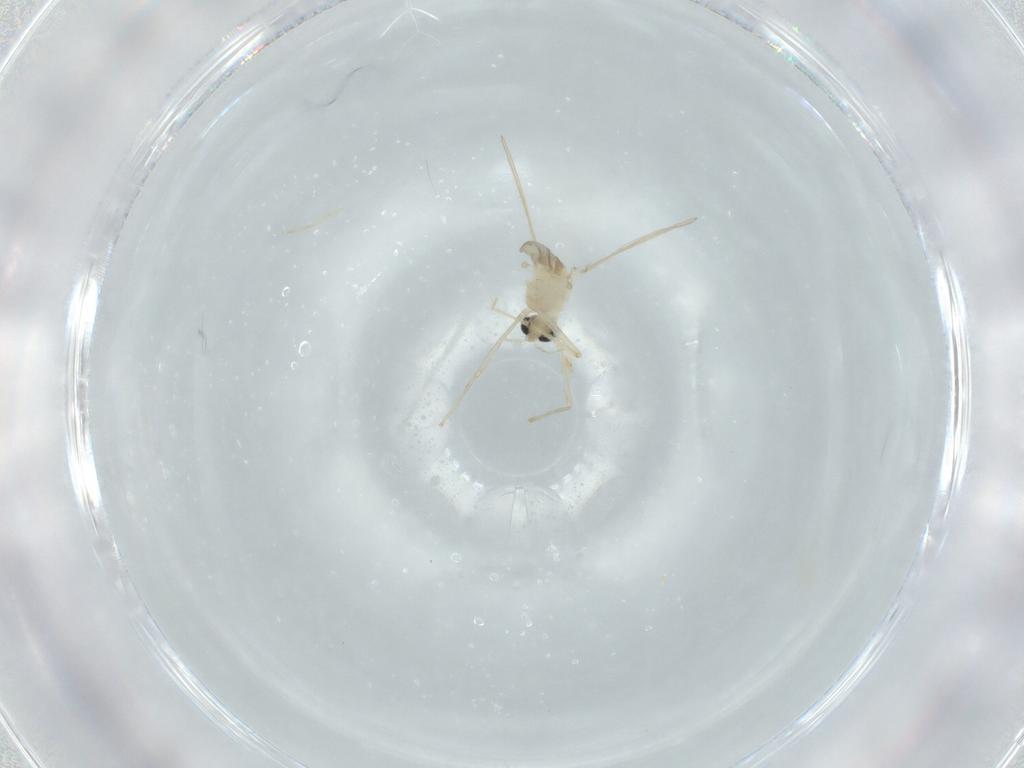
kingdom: Animalia
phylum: Arthropoda
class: Insecta
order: Diptera
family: Chironomidae
